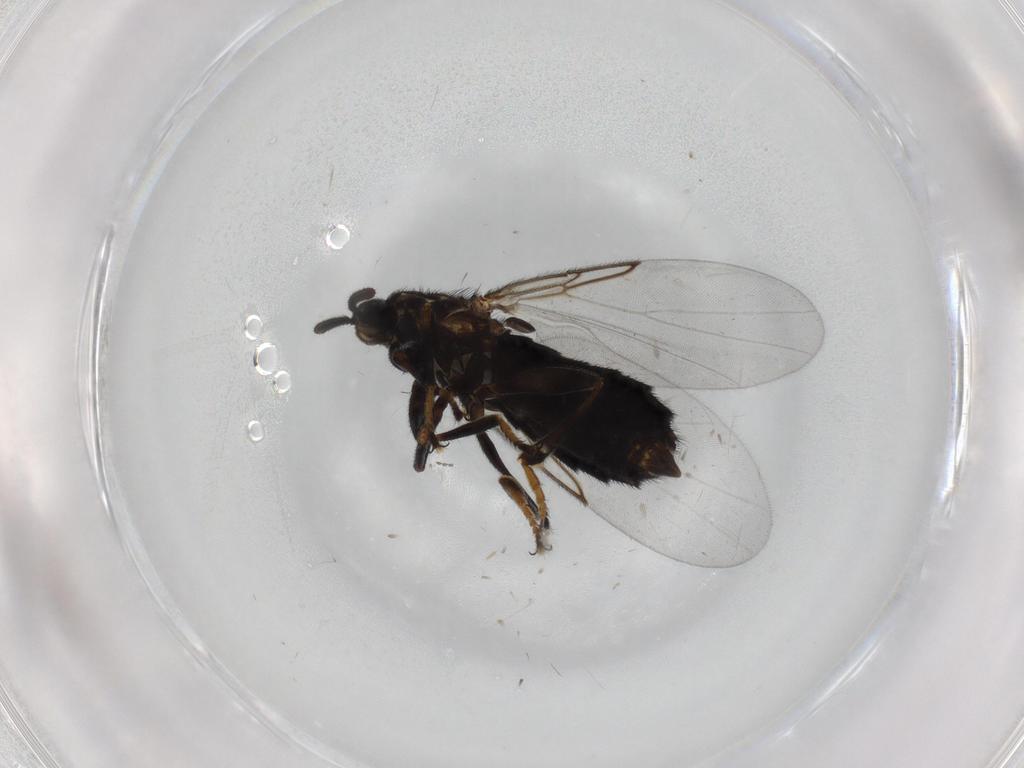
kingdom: Animalia
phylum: Arthropoda
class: Insecta
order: Diptera
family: Scatopsidae
